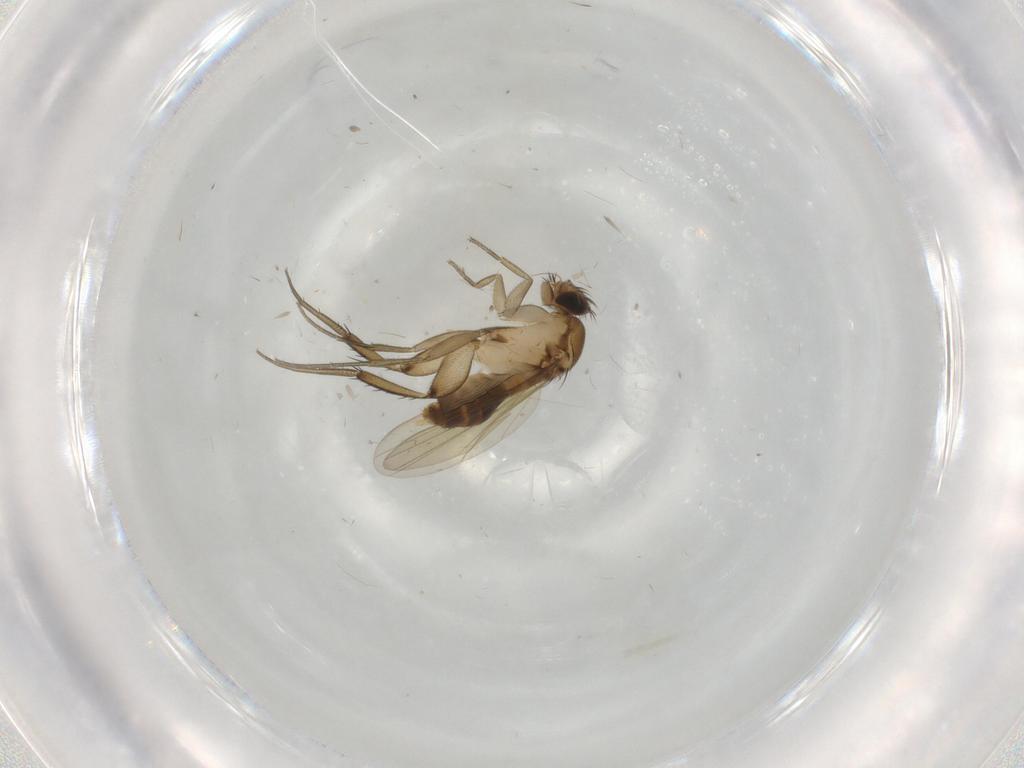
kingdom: Animalia
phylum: Arthropoda
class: Insecta
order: Diptera
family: Phoridae
